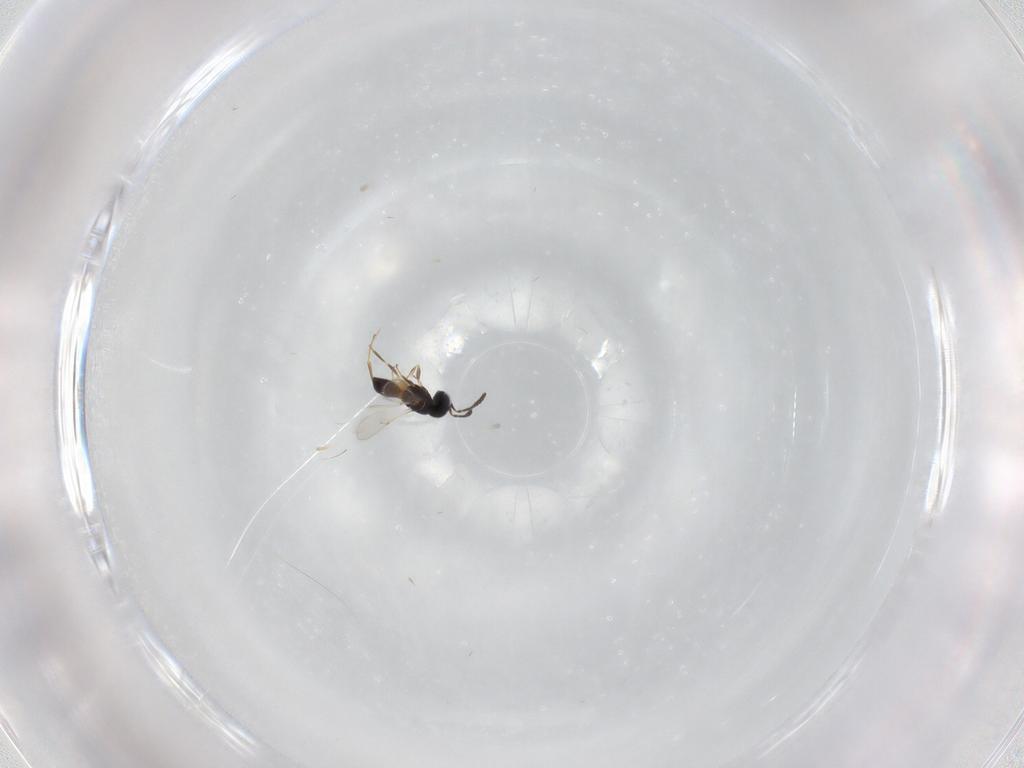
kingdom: Animalia
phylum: Arthropoda
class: Insecta
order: Hymenoptera
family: Scelionidae
